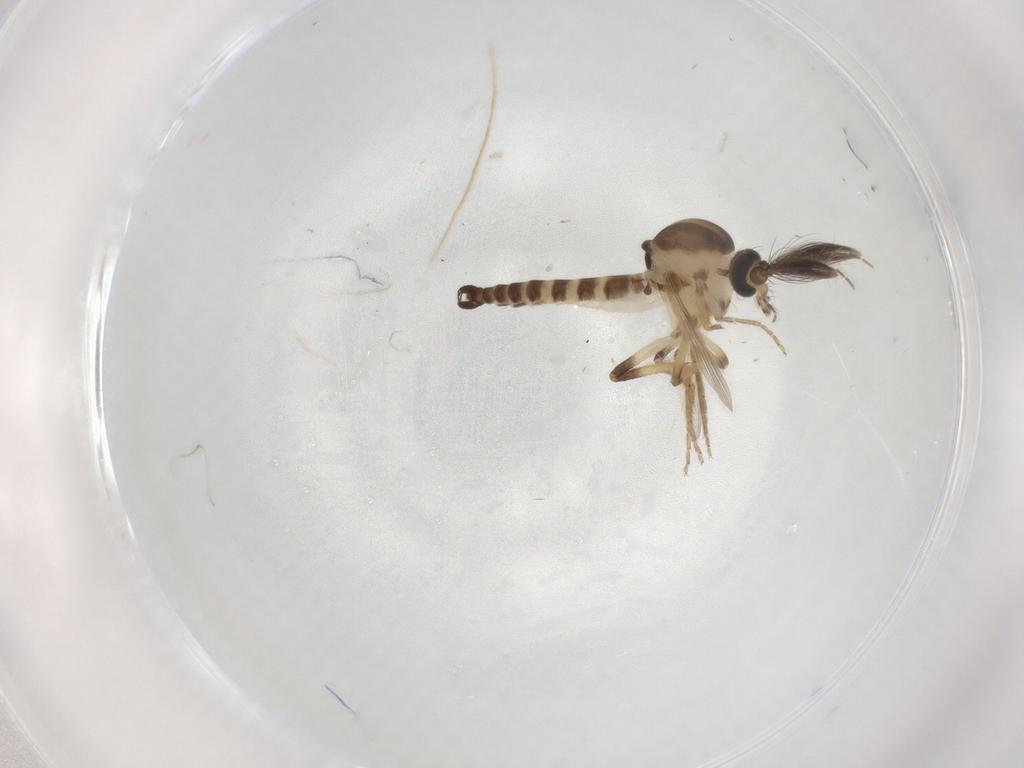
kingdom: Animalia
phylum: Arthropoda
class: Insecta
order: Diptera
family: Ceratopogonidae
